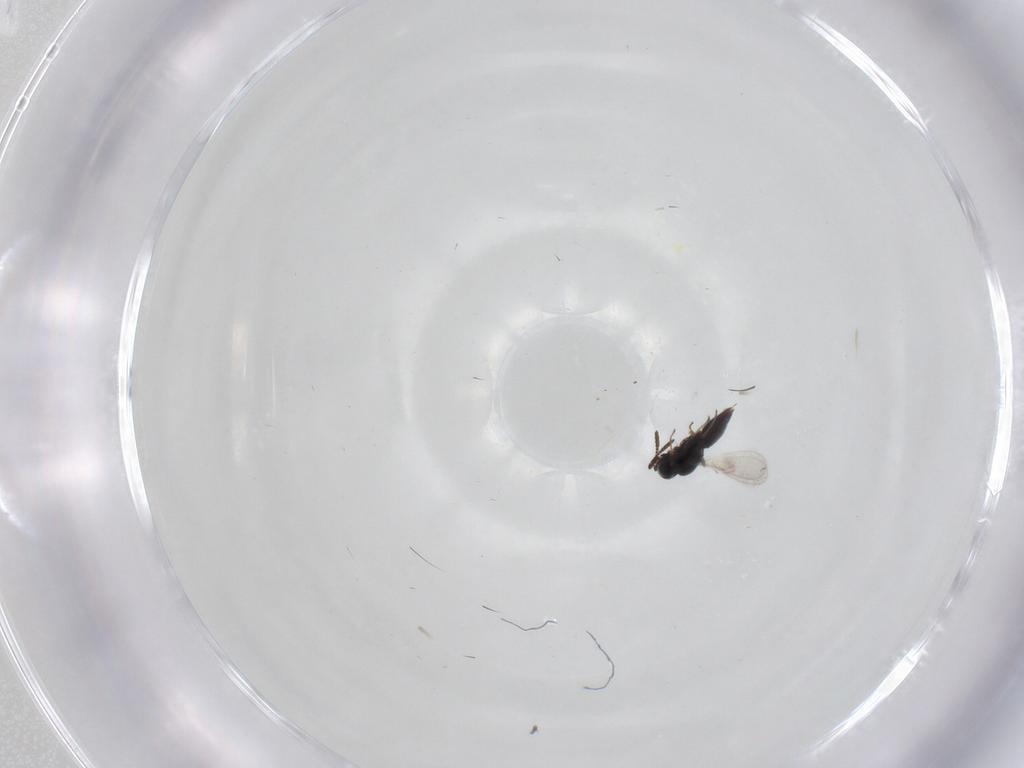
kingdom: Animalia
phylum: Arthropoda
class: Insecta
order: Hymenoptera
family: Scelionidae
